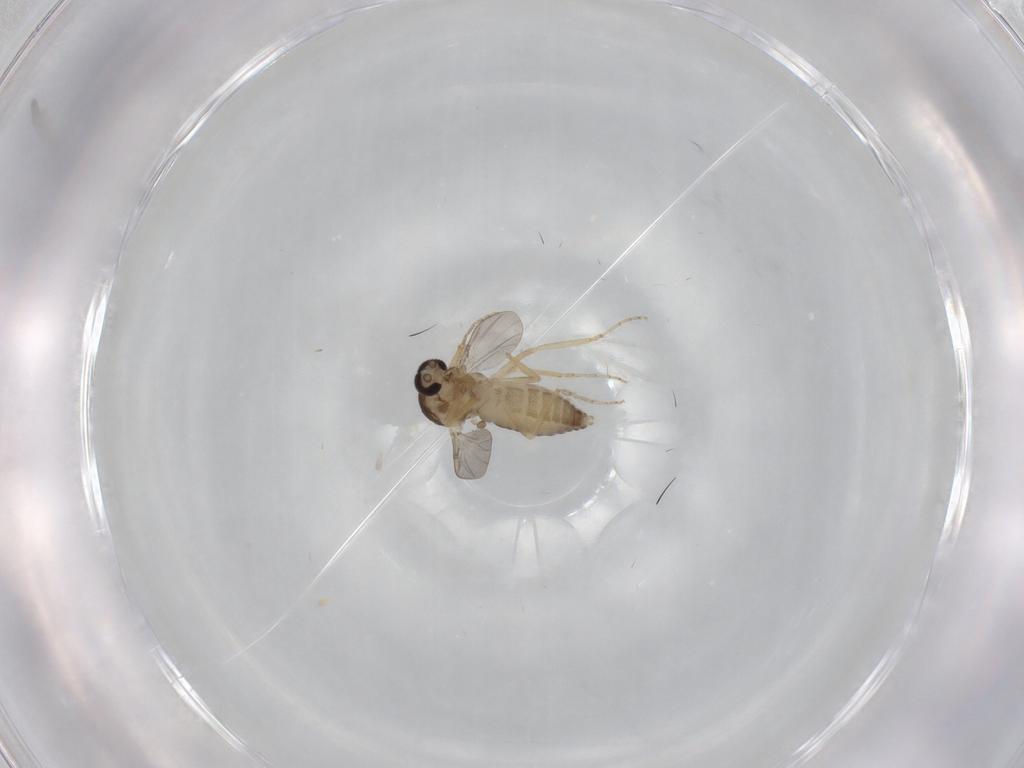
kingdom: Animalia
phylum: Arthropoda
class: Insecta
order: Diptera
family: Ceratopogonidae
